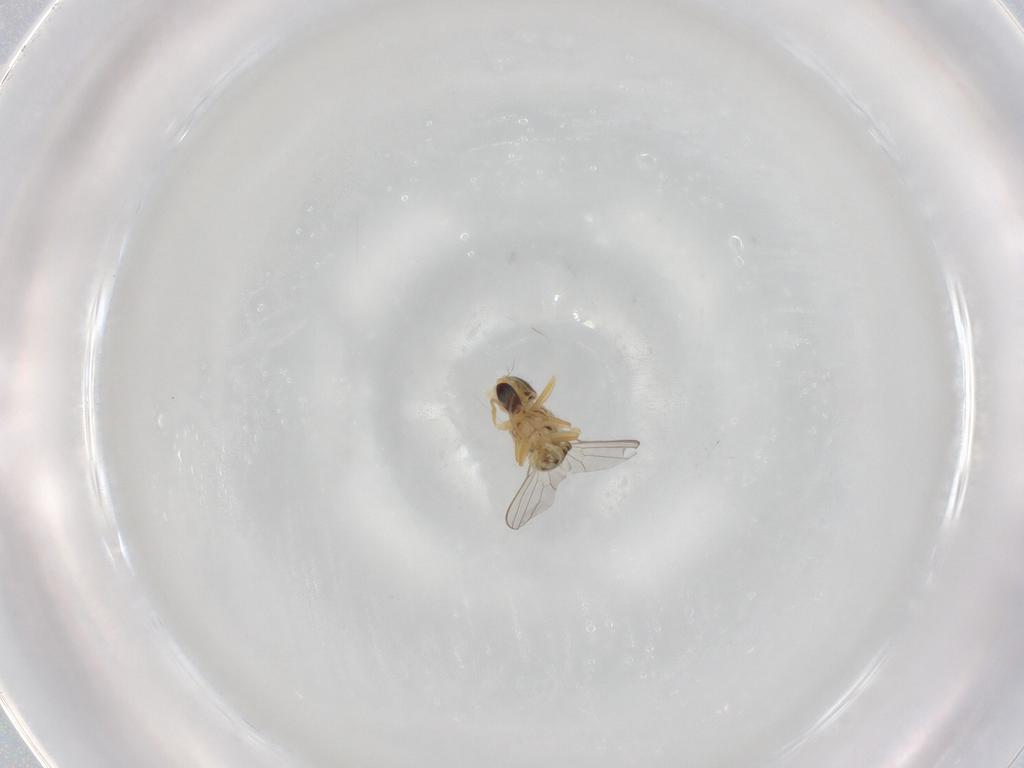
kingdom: Animalia
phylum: Arthropoda
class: Insecta
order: Diptera
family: Chyromyidae
